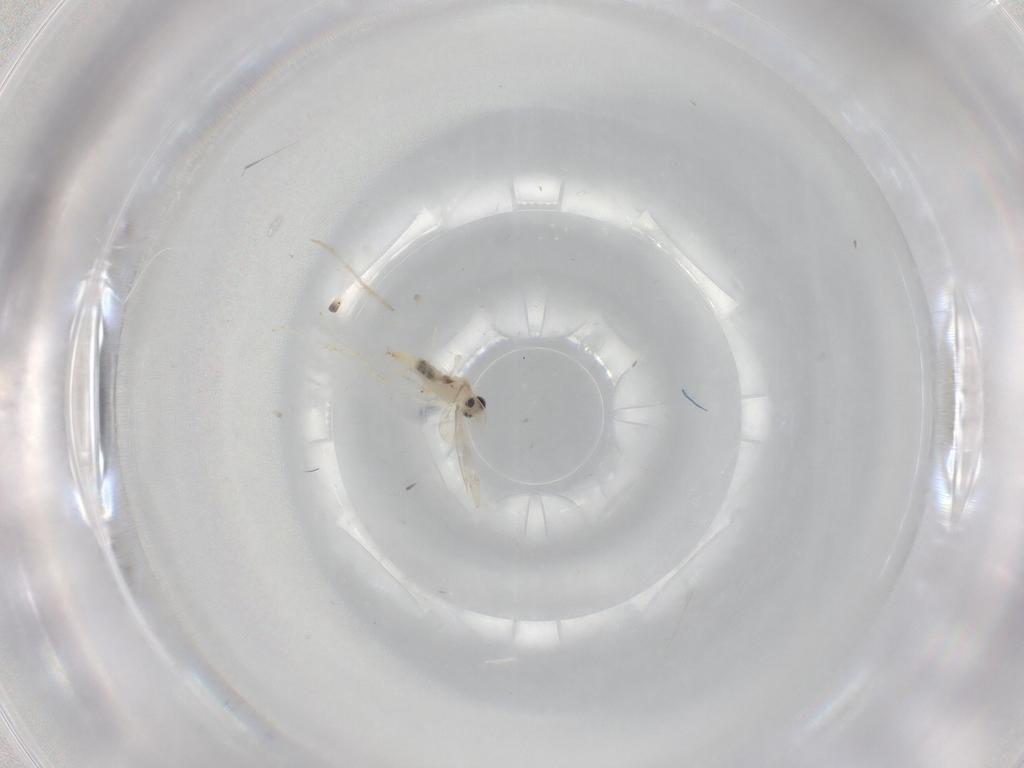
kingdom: Animalia
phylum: Arthropoda
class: Insecta
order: Diptera
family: Chironomidae
